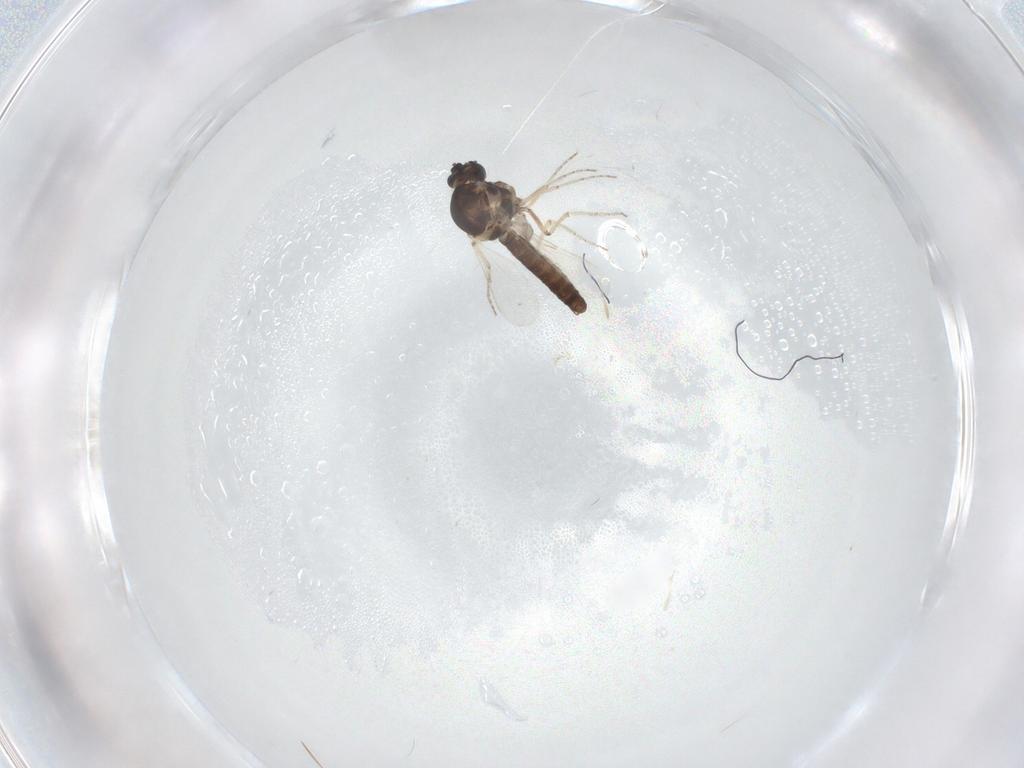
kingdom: Animalia
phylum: Arthropoda
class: Insecta
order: Diptera
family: Ceratopogonidae
